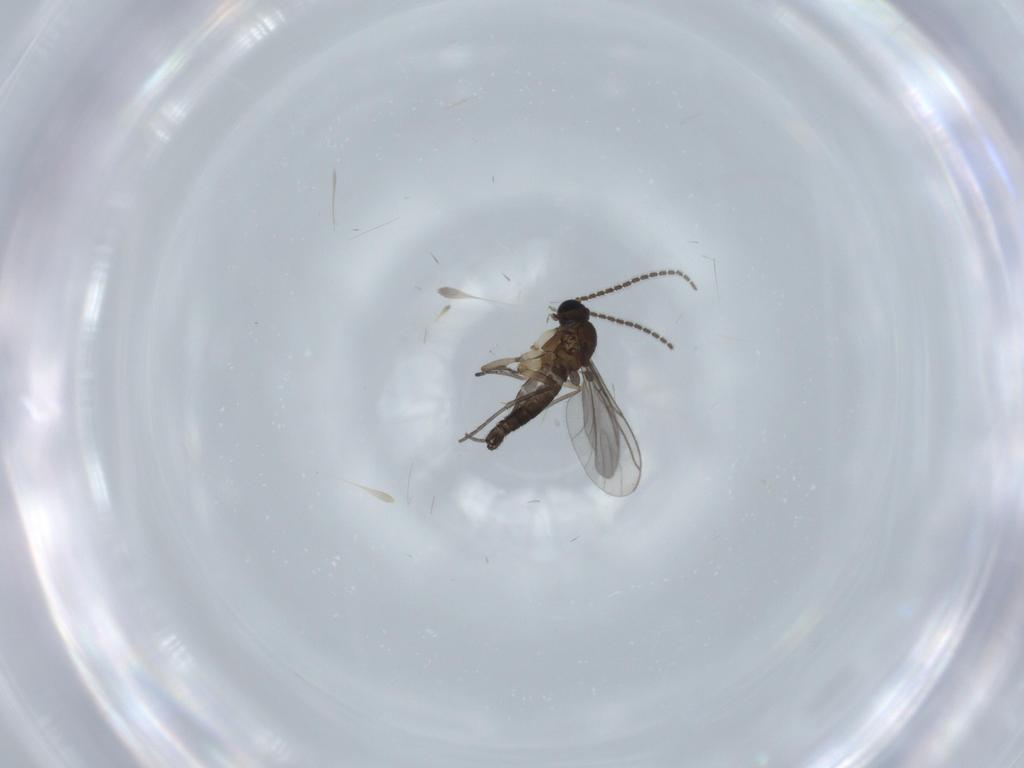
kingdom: Animalia
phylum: Arthropoda
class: Insecta
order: Diptera
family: Sciaridae
